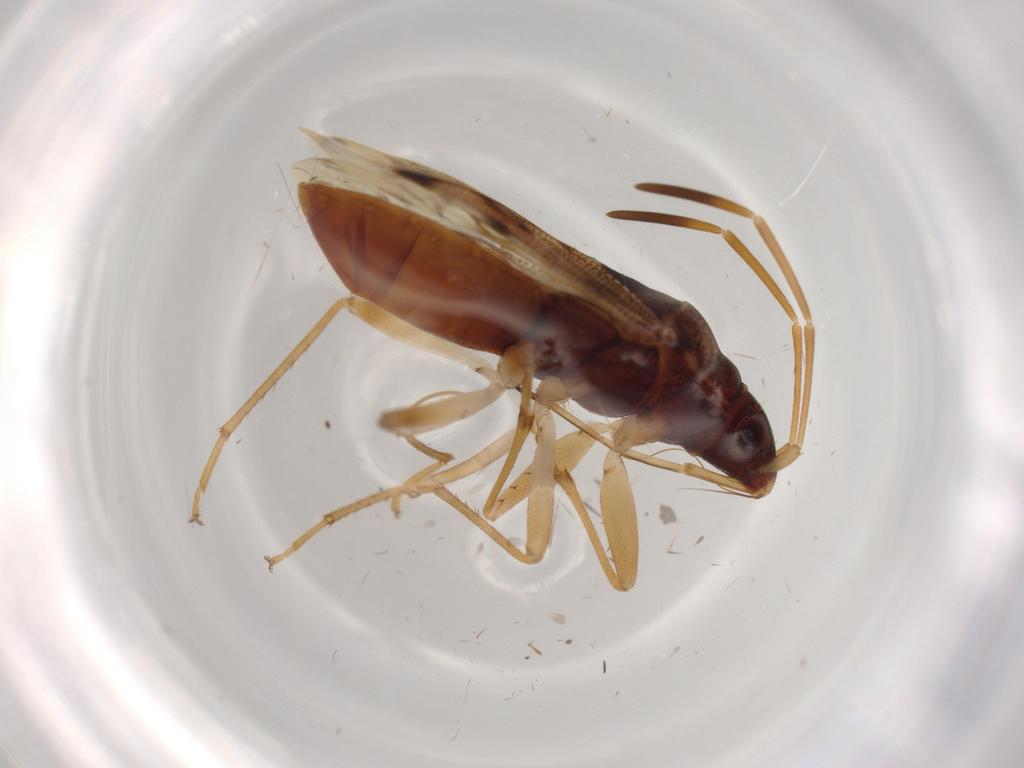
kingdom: Animalia
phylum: Arthropoda
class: Insecta
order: Hemiptera
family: Rhyparochromidae
